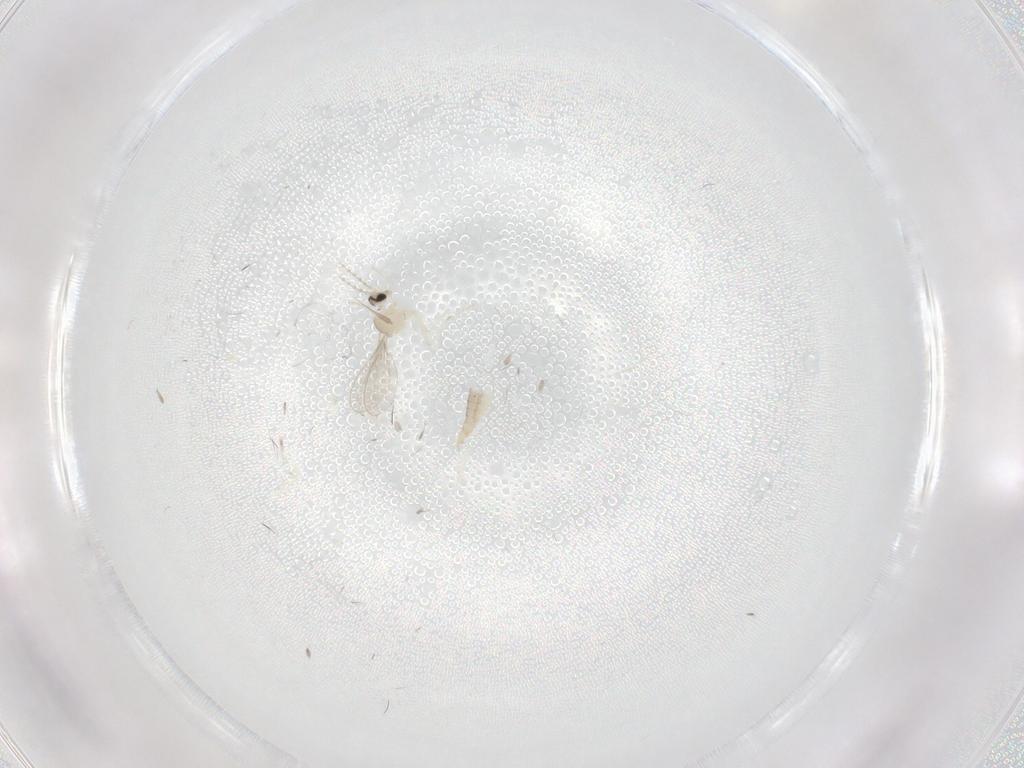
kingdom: Animalia
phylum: Arthropoda
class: Insecta
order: Diptera
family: Cecidomyiidae
